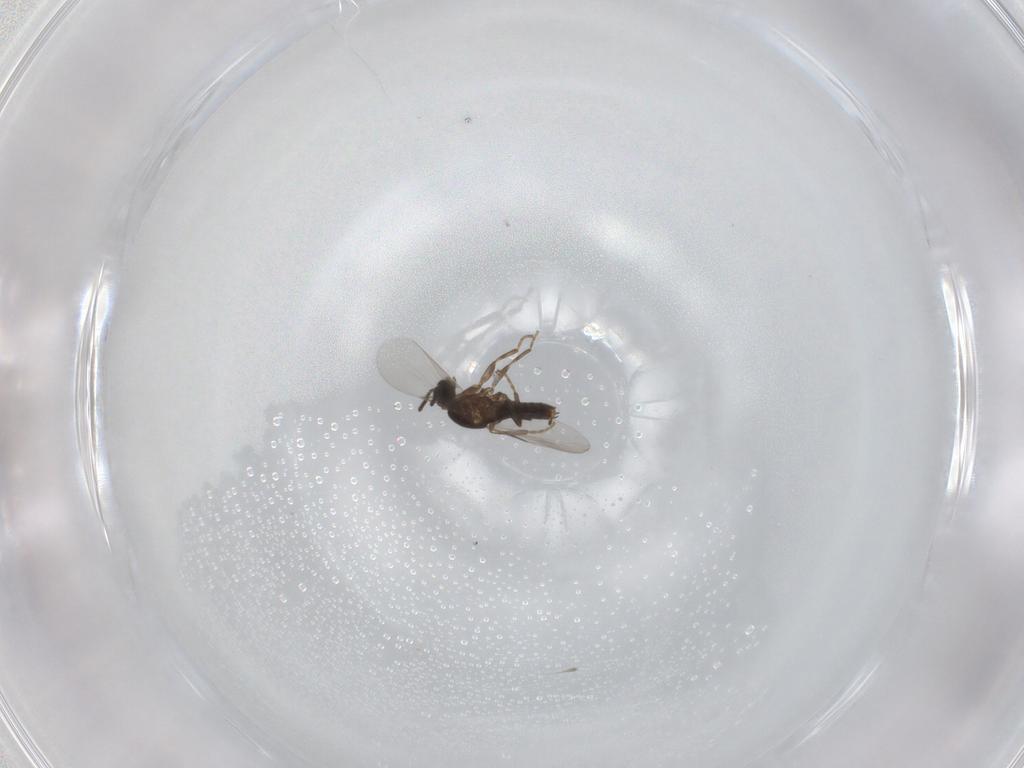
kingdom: Animalia
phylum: Arthropoda
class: Insecta
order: Diptera
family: Scatopsidae
